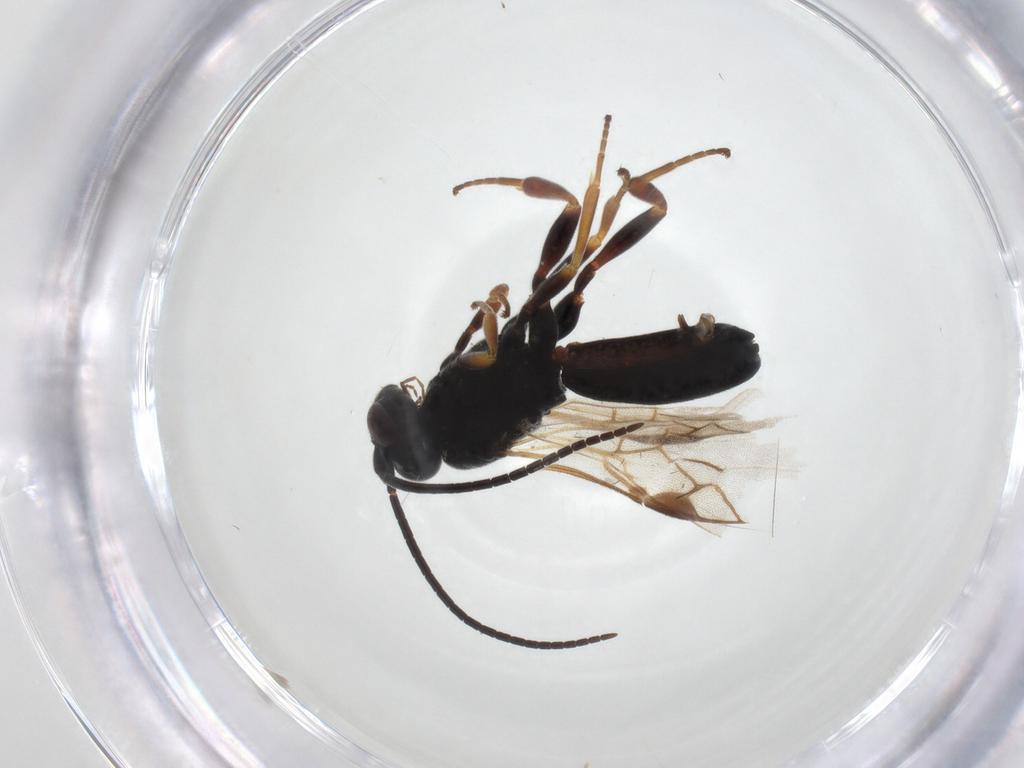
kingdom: Animalia
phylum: Arthropoda
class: Insecta
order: Hymenoptera
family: Braconidae
